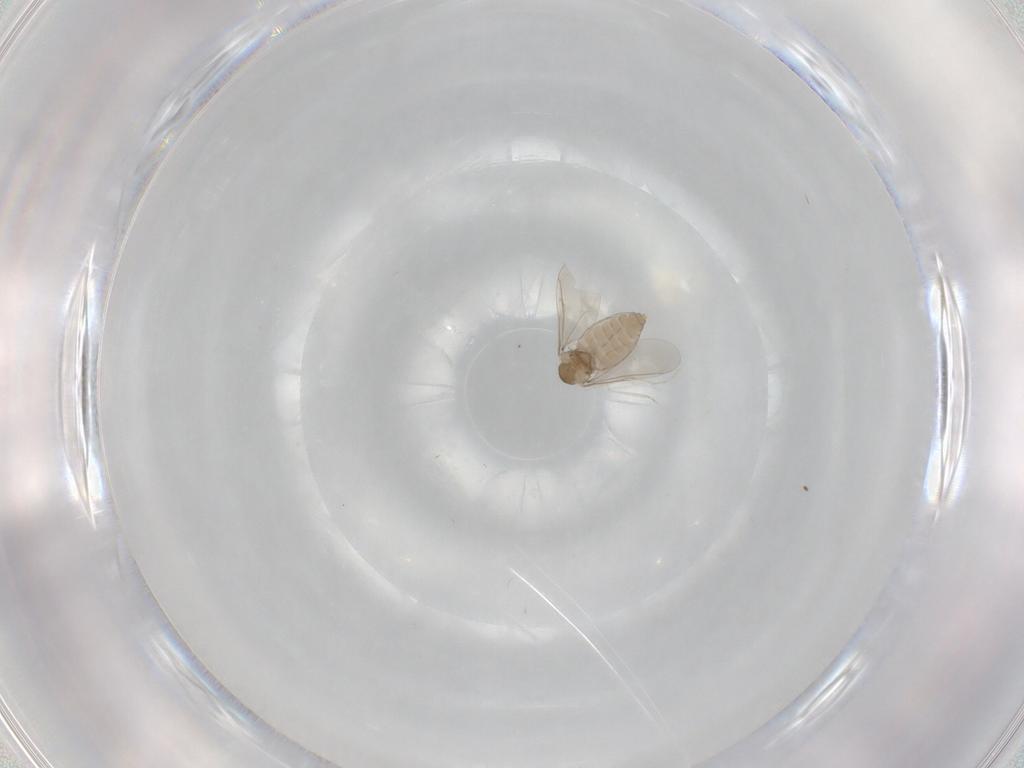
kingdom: Animalia
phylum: Arthropoda
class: Insecta
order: Diptera
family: Cecidomyiidae
